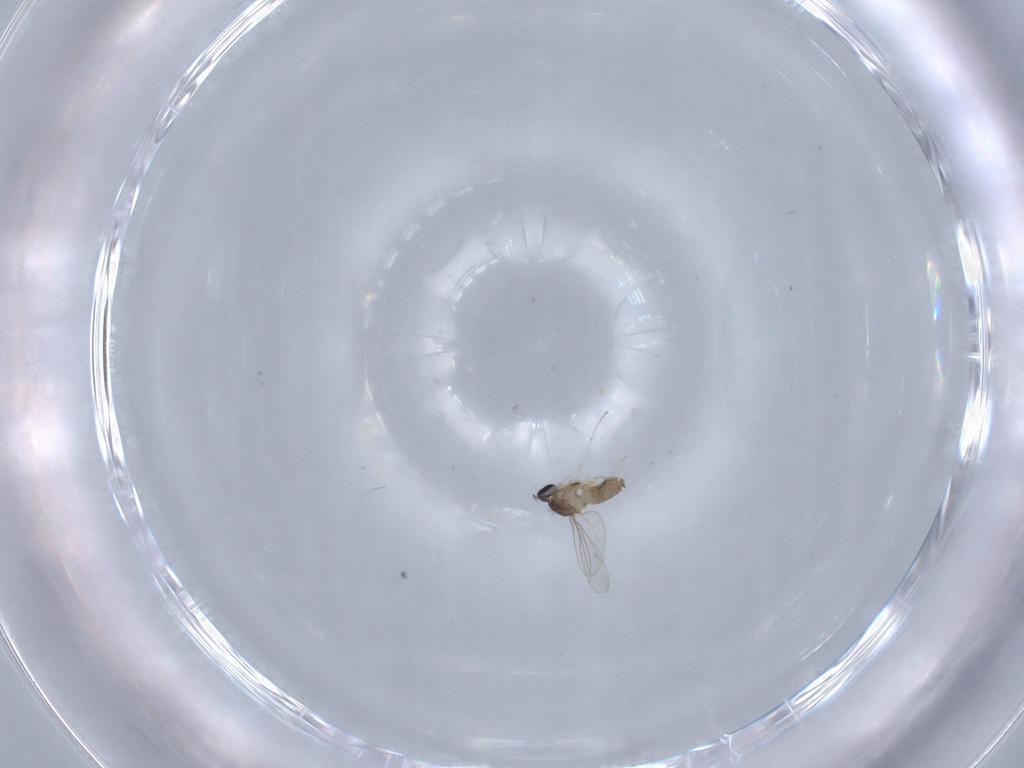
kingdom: Animalia
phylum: Arthropoda
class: Insecta
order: Diptera
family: Cecidomyiidae
